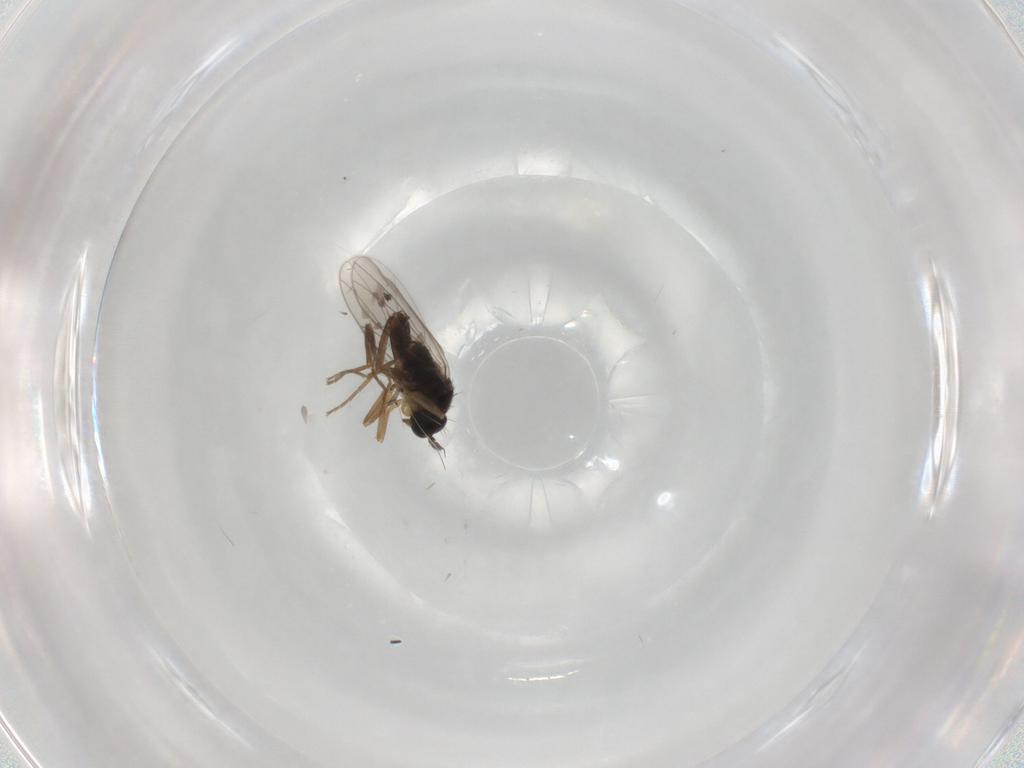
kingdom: Animalia
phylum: Arthropoda
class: Insecta
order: Diptera
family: Hybotidae
